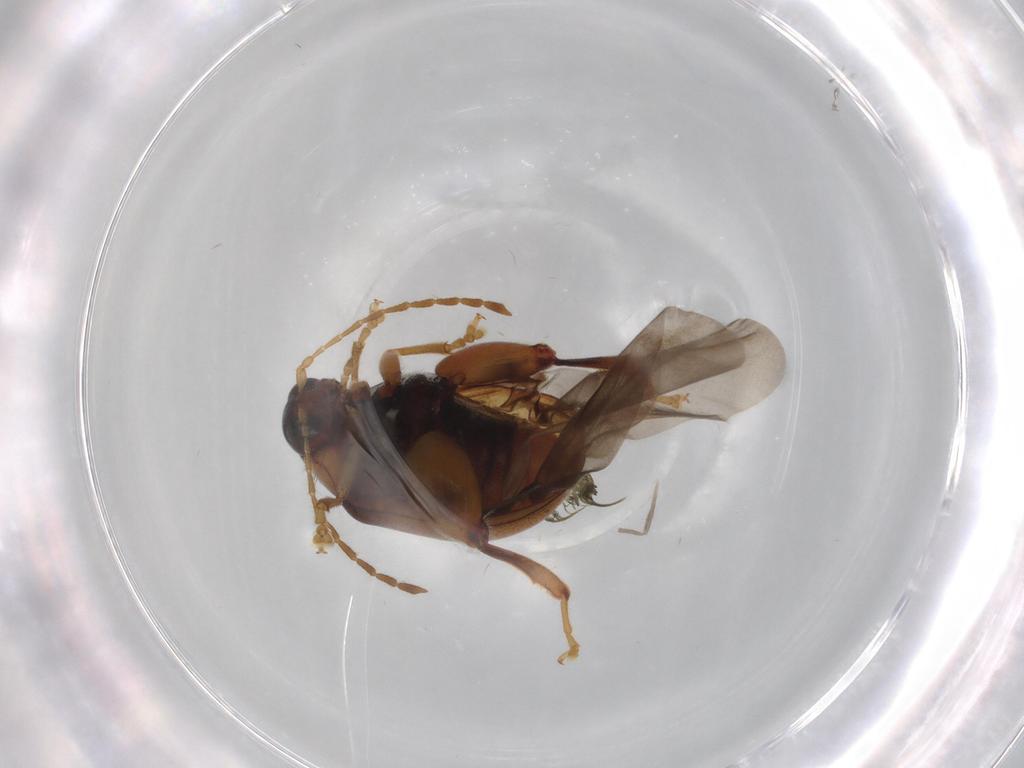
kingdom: Animalia
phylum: Arthropoda
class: Insecta
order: Coleoptera
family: Chrysomelidae
